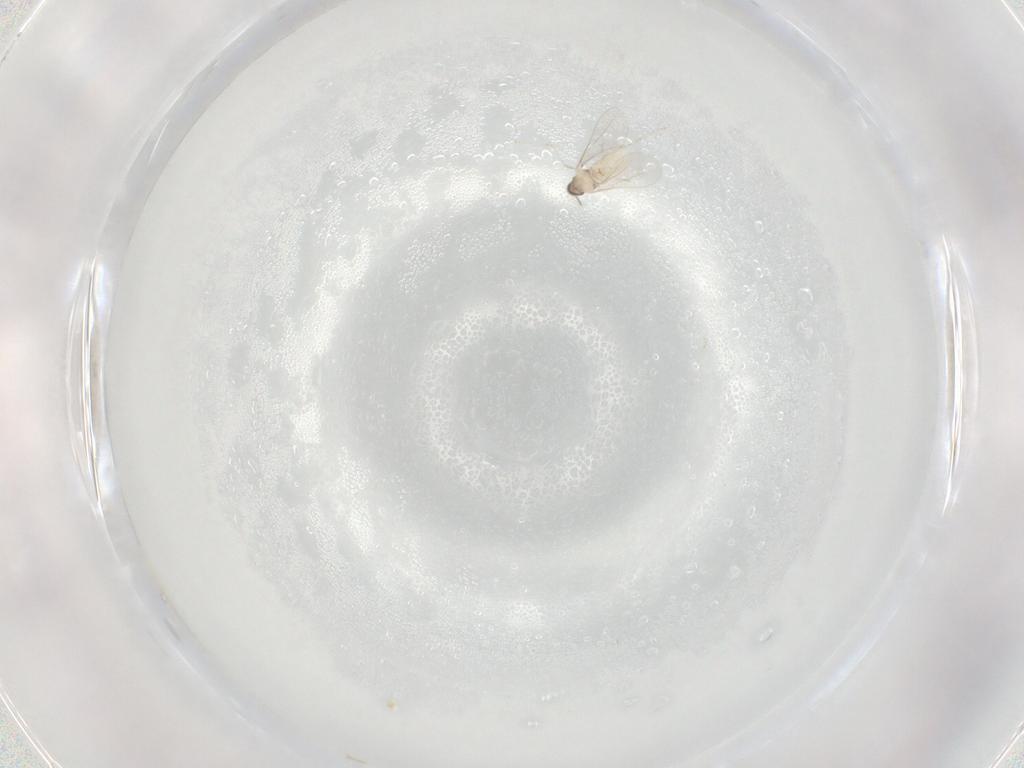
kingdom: Animalia
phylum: Arthropoda
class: Insecta
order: Diptera
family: Cecidomyiidae
